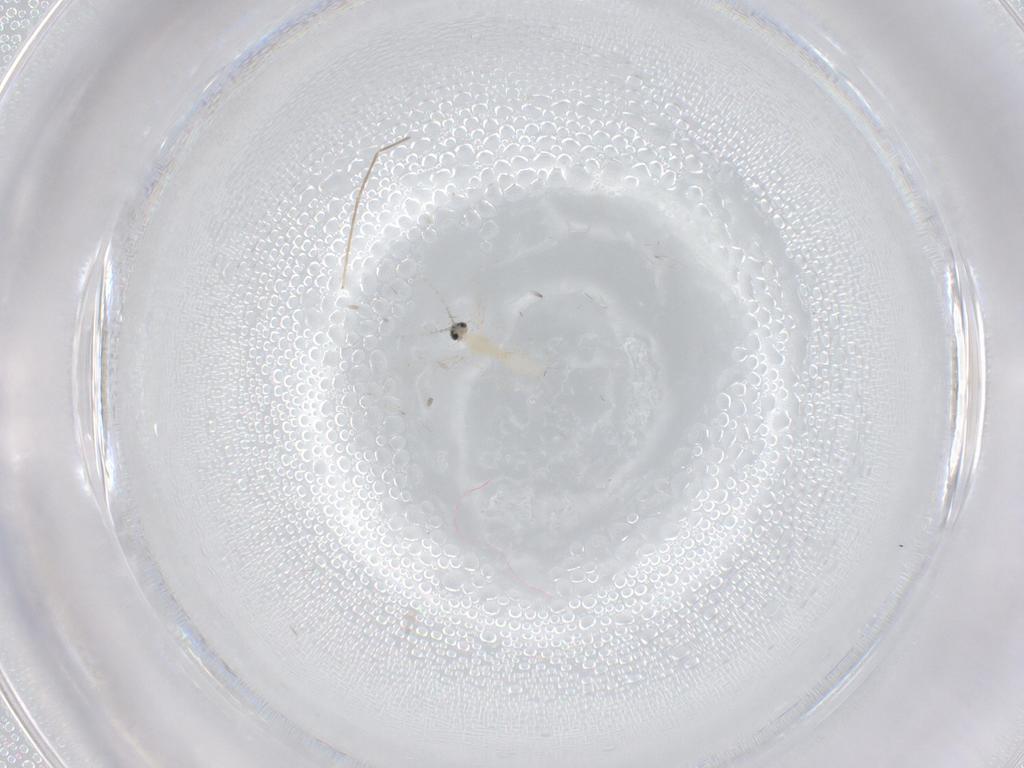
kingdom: Animalia
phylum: Arthropoda
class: Insecta
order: Diptera
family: Cecidomyiidae
